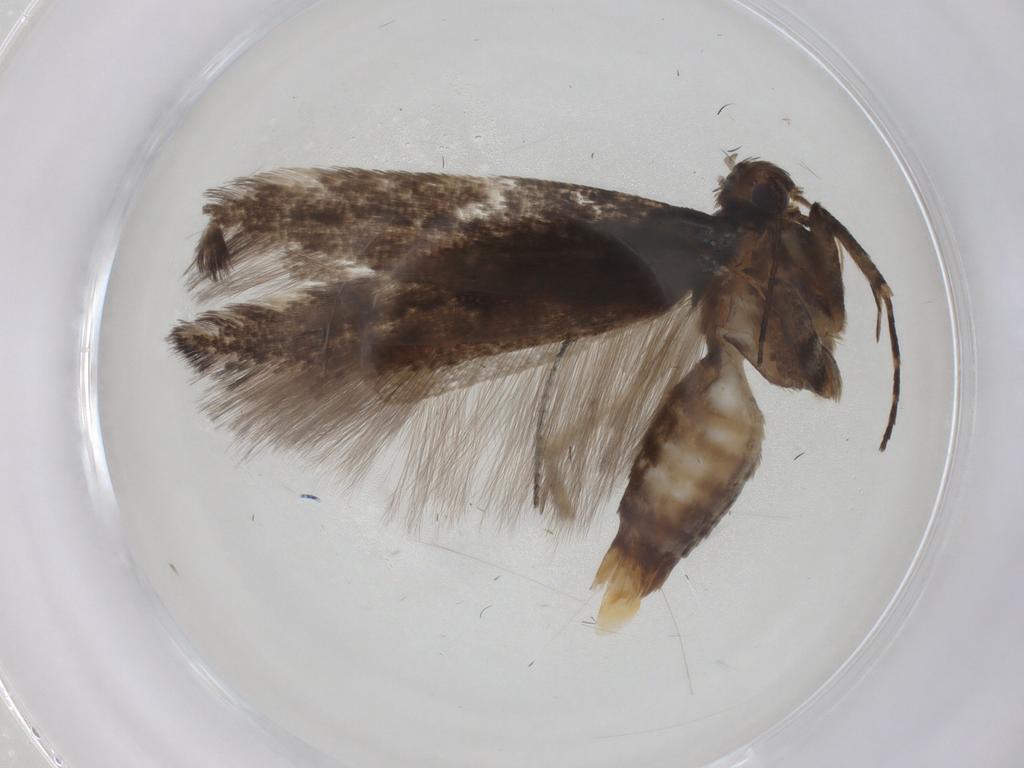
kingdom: Animalia
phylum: Arthropoda
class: Insecta
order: Lepidoptera
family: Gelechiidae
